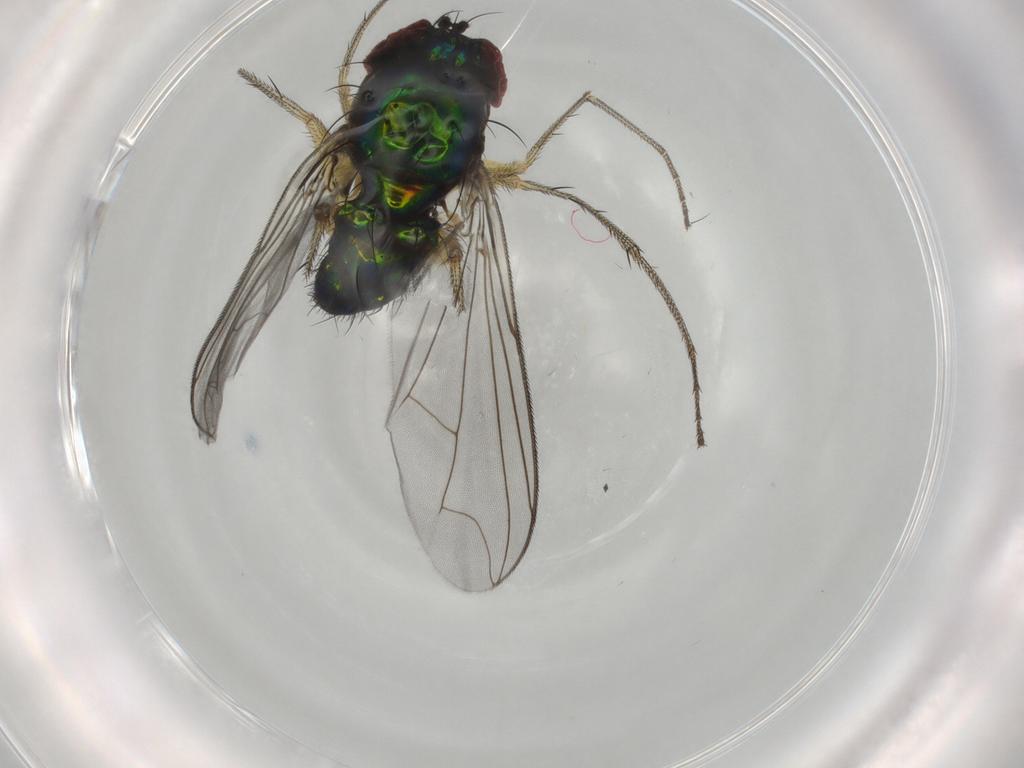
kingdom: Animalia
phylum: Arthropoda
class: Insecta
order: Diptera
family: Dolichopodidae
